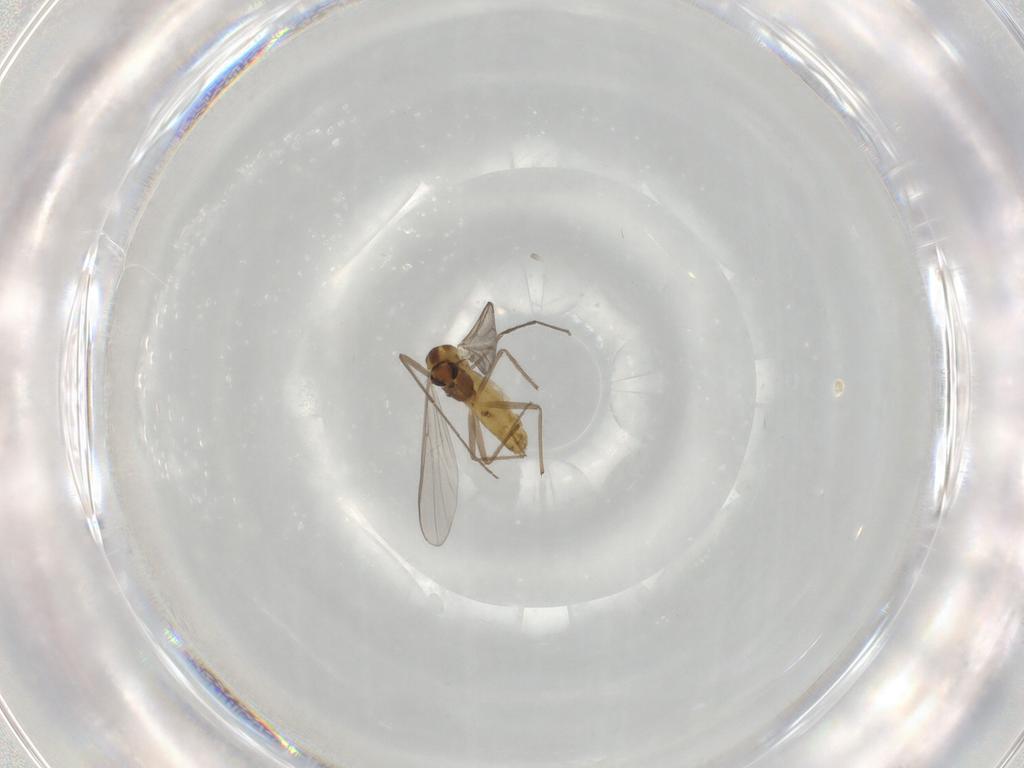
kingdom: Animalia
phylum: Arthropoda
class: Insecta
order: Diptera
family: Chironomidae
